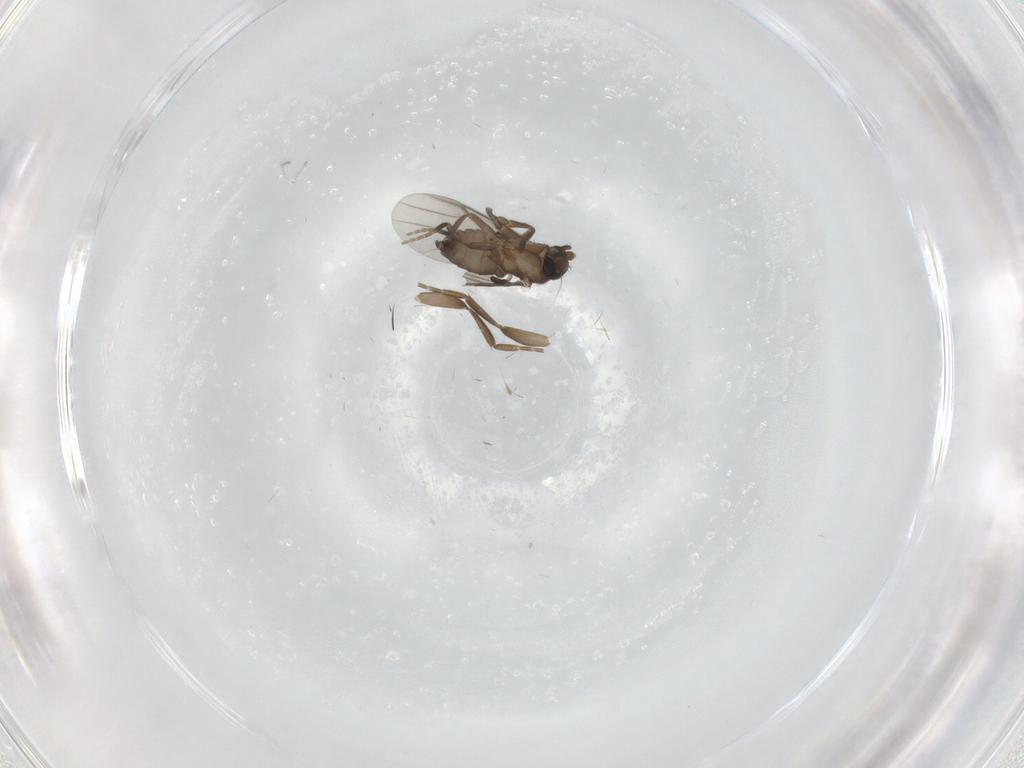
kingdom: Animalia
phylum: Arthropoda
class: Insecta
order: Diptera
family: Phoridae
